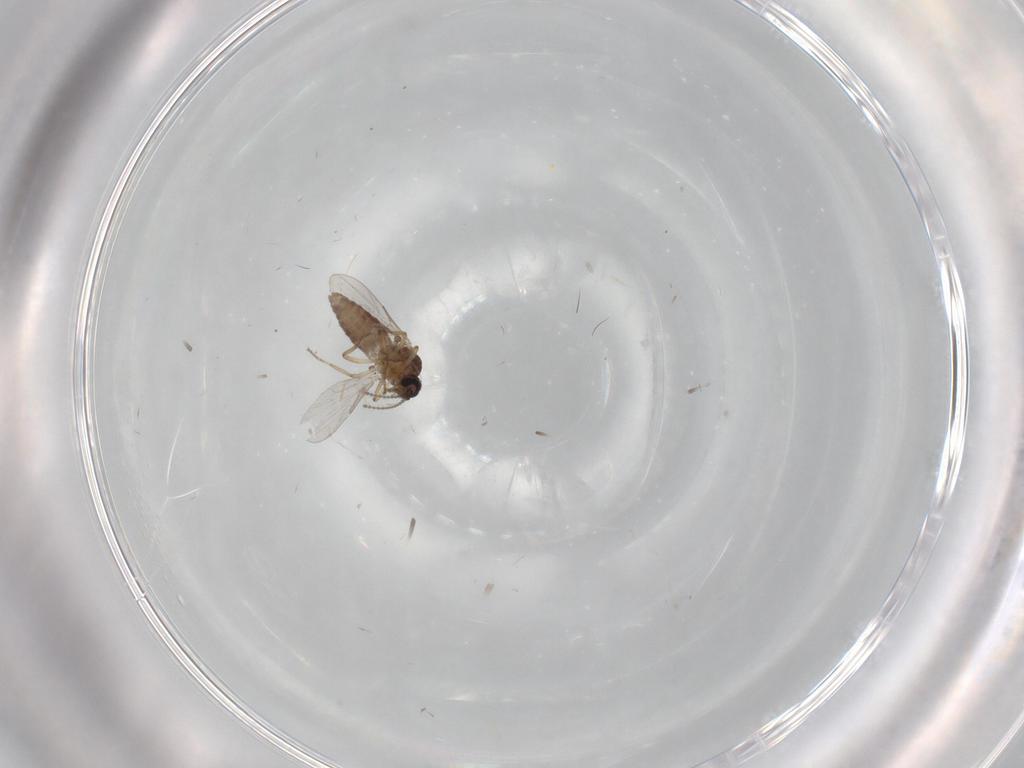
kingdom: Animalia
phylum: Arthropoda
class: Insecta
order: Diptera
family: Ceratopogonidae
